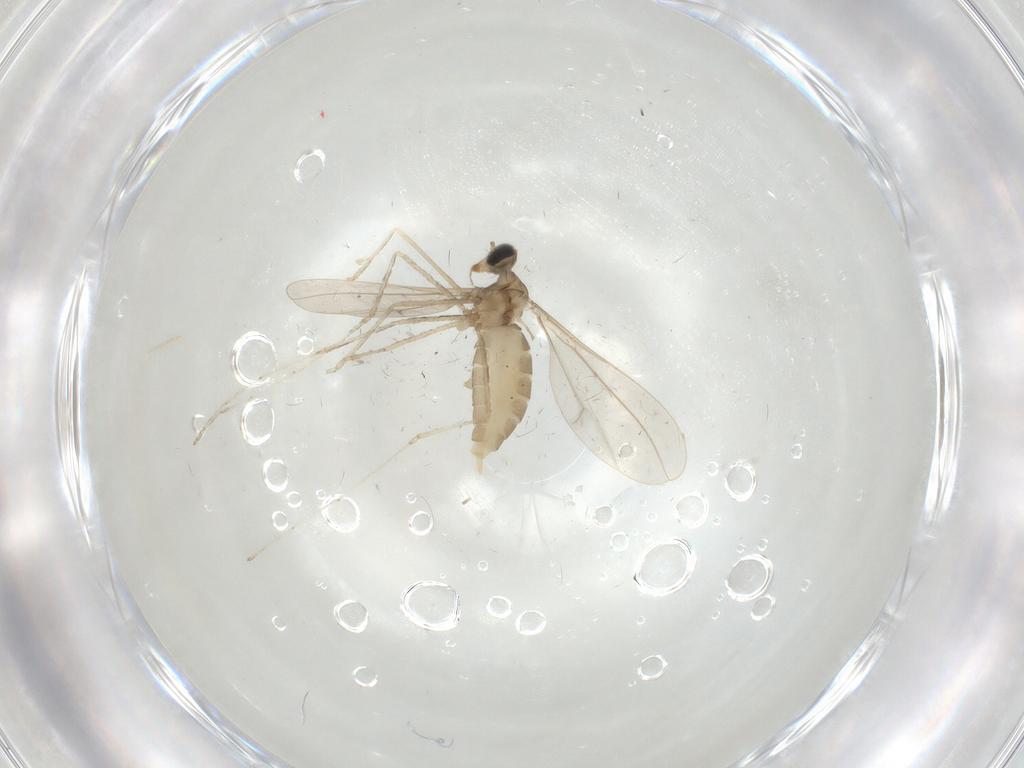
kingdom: Animalia
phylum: Arthropoda
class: Insecta
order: Diptera
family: Cecidomyiidae
